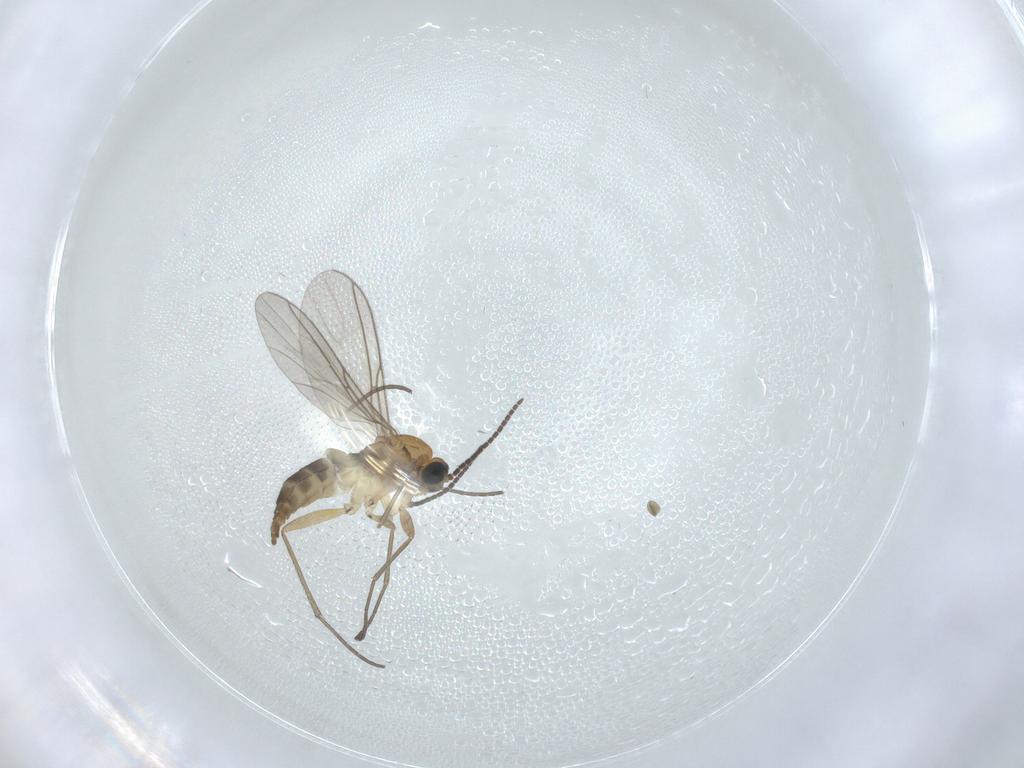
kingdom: Animalia
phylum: Arthropoda
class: Insecta
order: Diptera
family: Sciaridae
